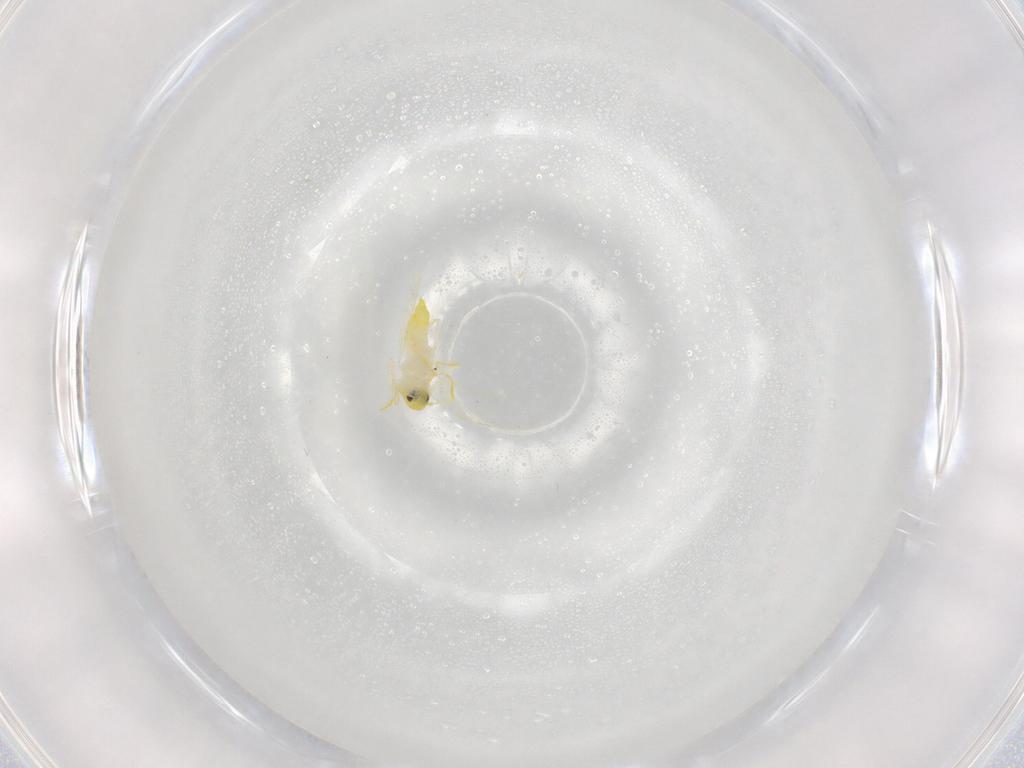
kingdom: Animalia
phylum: Arthropoda
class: Insecta
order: Hemiptera
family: Aleyrodidae
